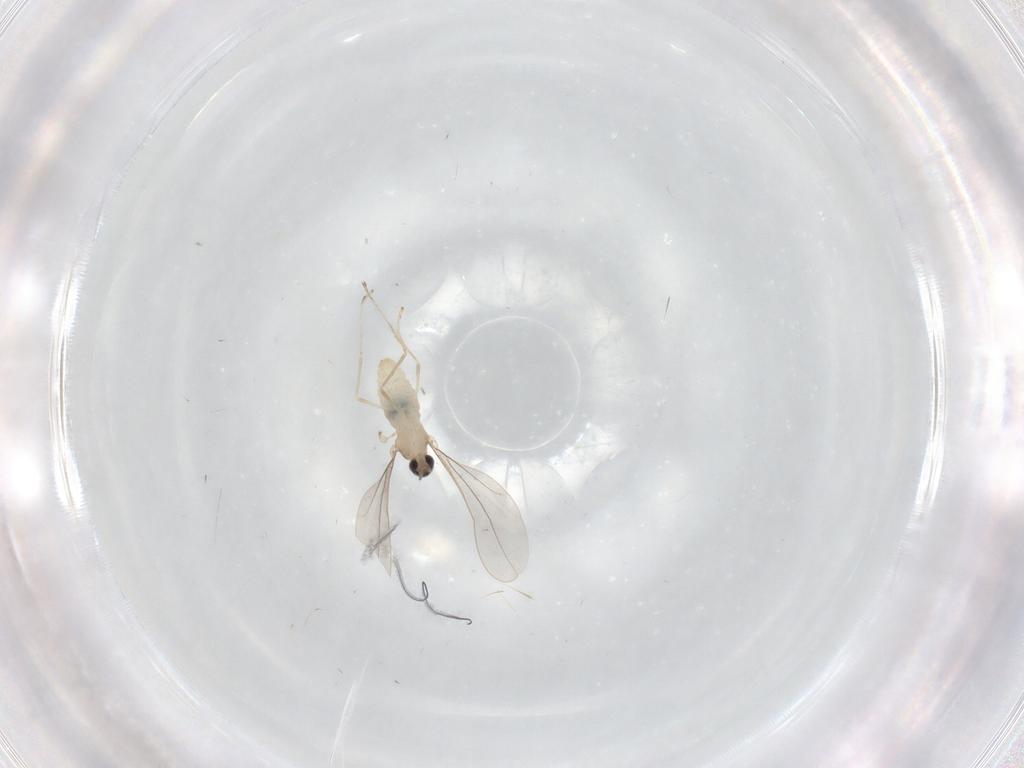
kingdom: Animalia
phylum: Arthropoda
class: Insecta
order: Diptera
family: Cecidomyiidae
